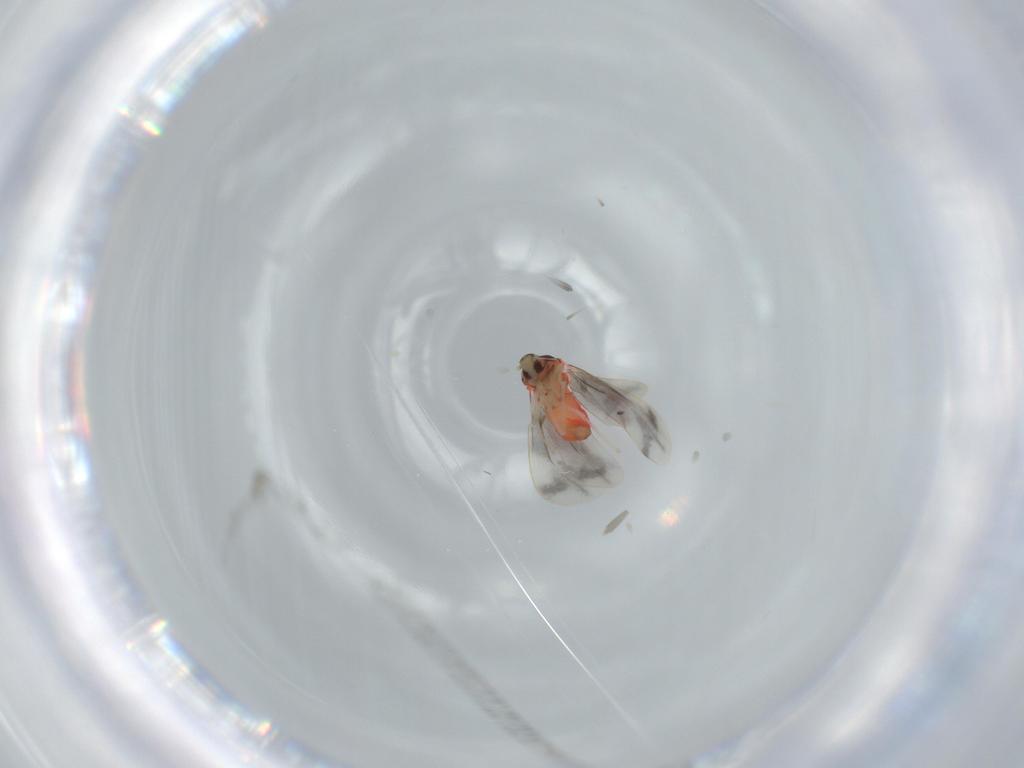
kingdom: Animalia
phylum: Arthropoda
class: Insecta
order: Hemiptera
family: Aleyrodidae
